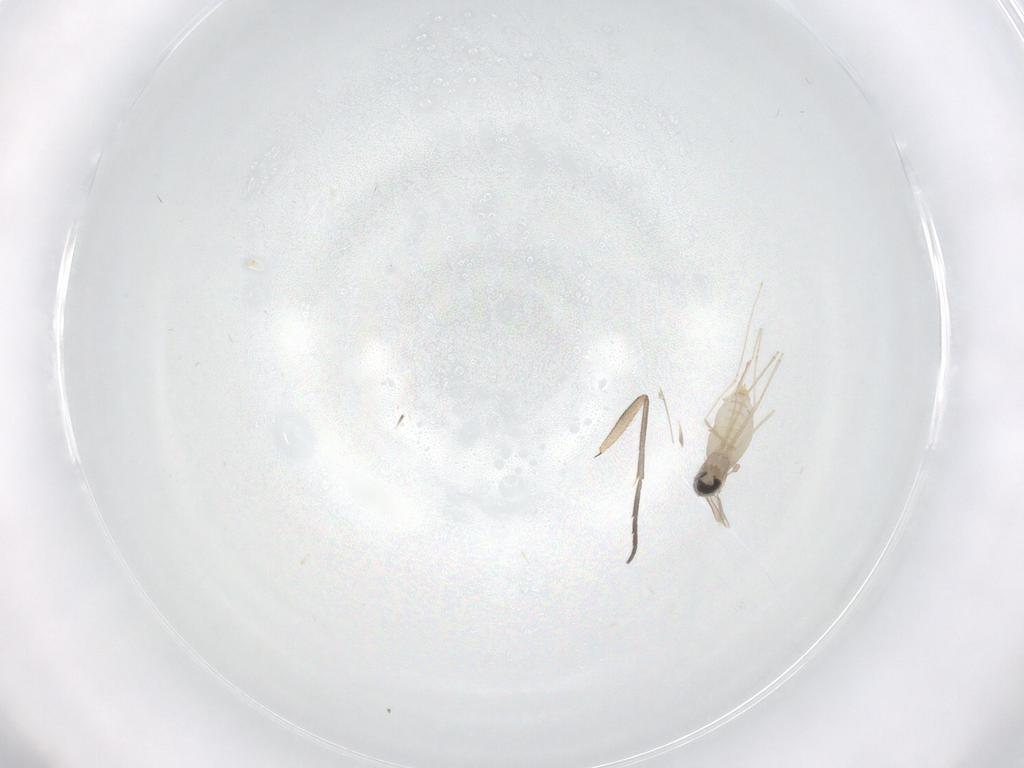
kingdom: Animalia
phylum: Arthropoda
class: Insecta
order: Diptera
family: Cecidomyiidae
